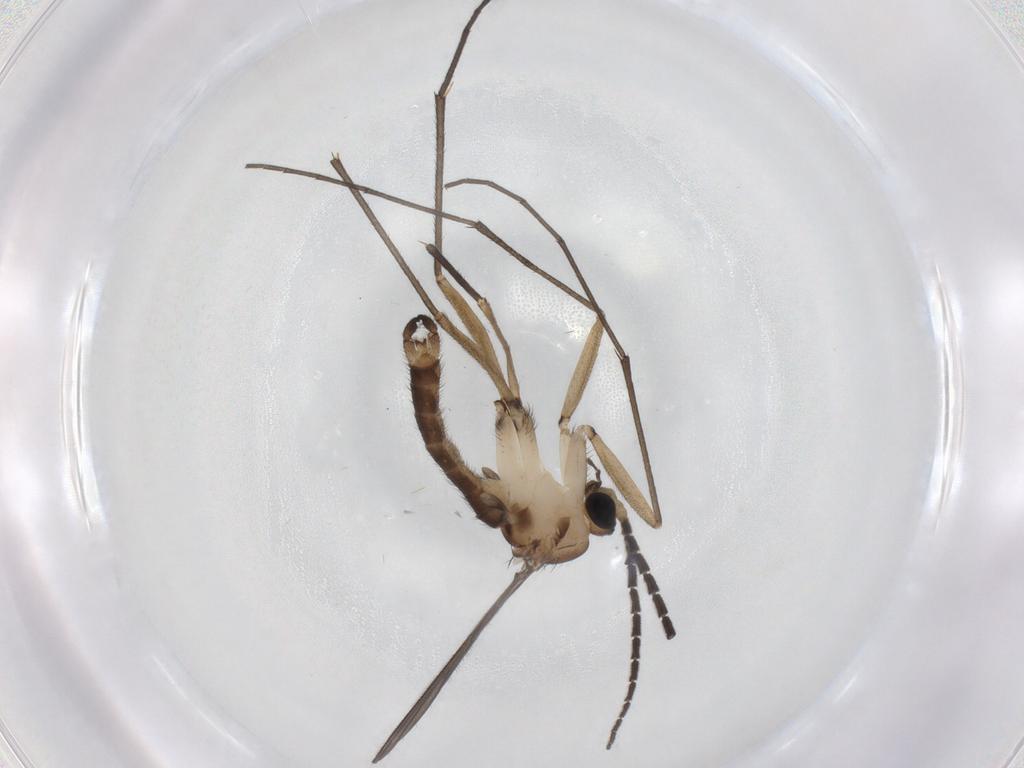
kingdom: Animalia
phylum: Arthropoda
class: Insecta
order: Diptera
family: Sciaridae
